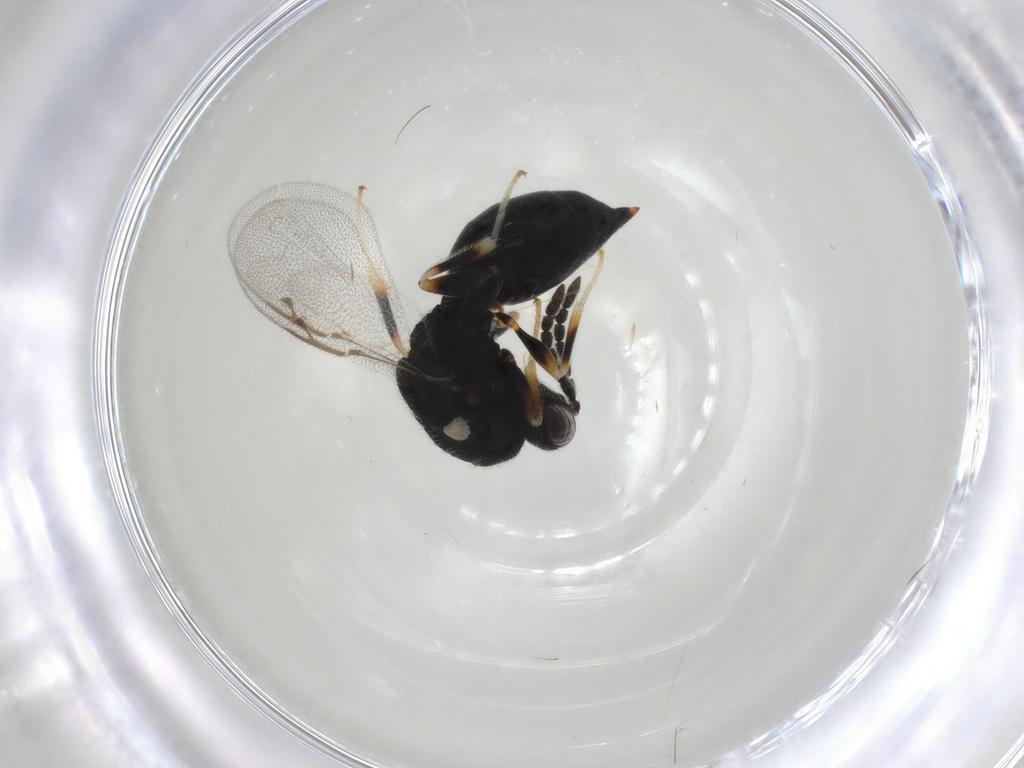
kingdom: Animalia
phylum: Arthropoda
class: Insecta
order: Hymenoptera
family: Eurytomidae
